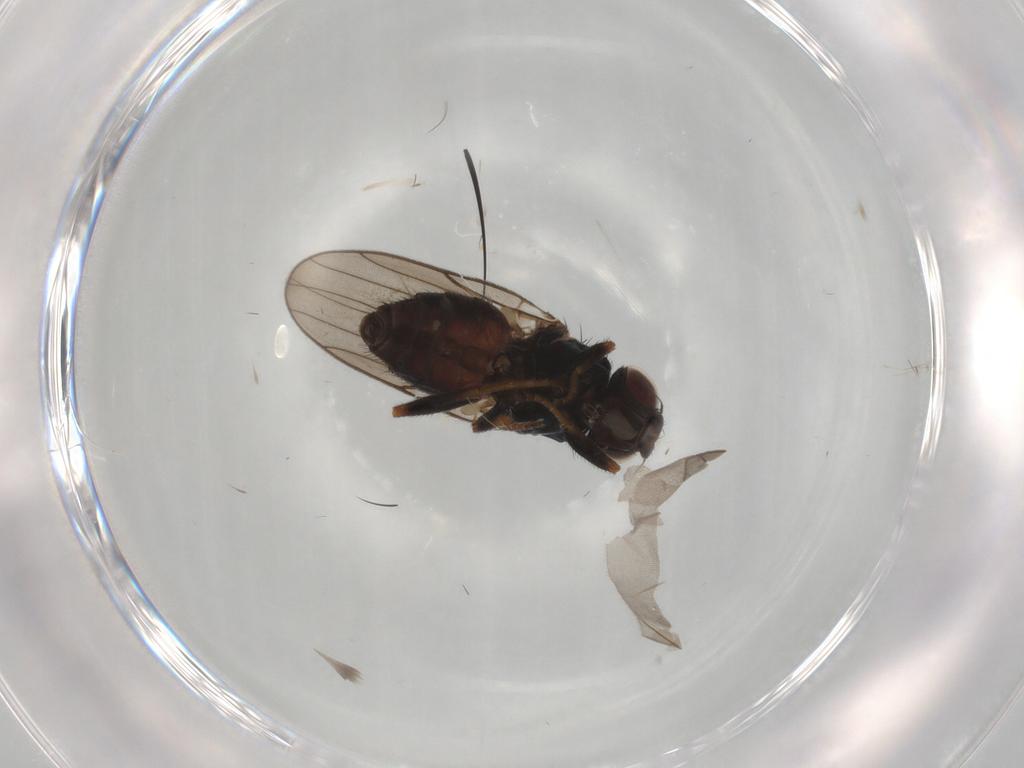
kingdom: Animalia
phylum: Arthropoda
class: Insecta
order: Diptera
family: Chloropidae
